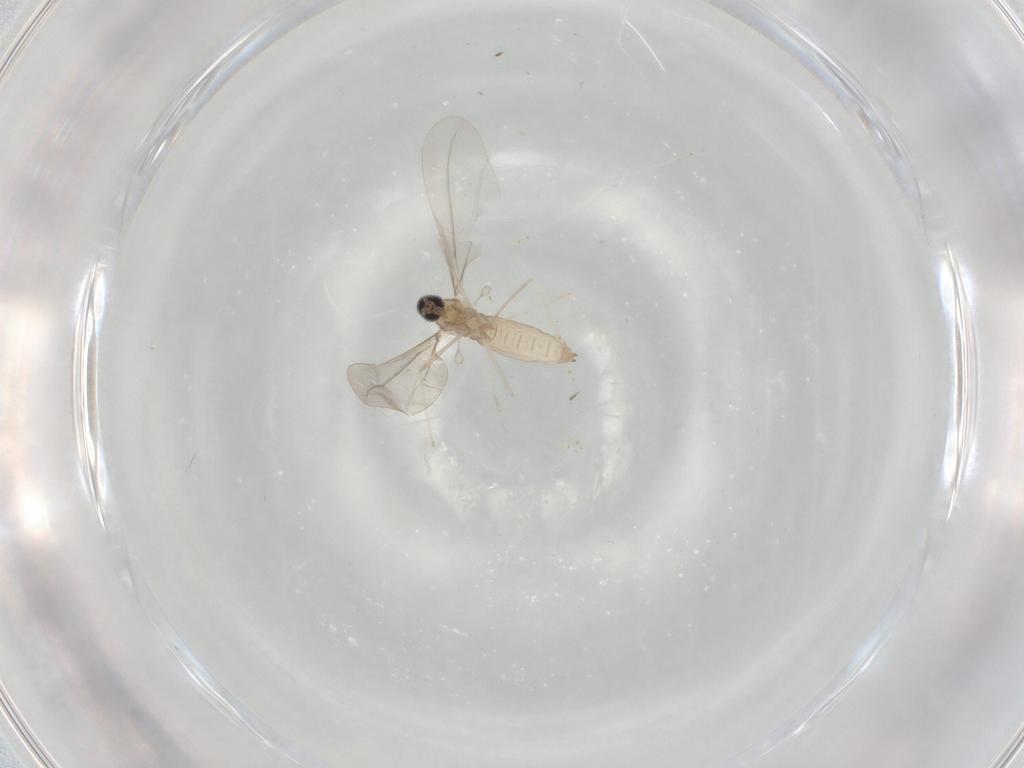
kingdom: Animalia
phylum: Arthropoda
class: Insecta
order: Diptera
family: Cecidomyiidae
